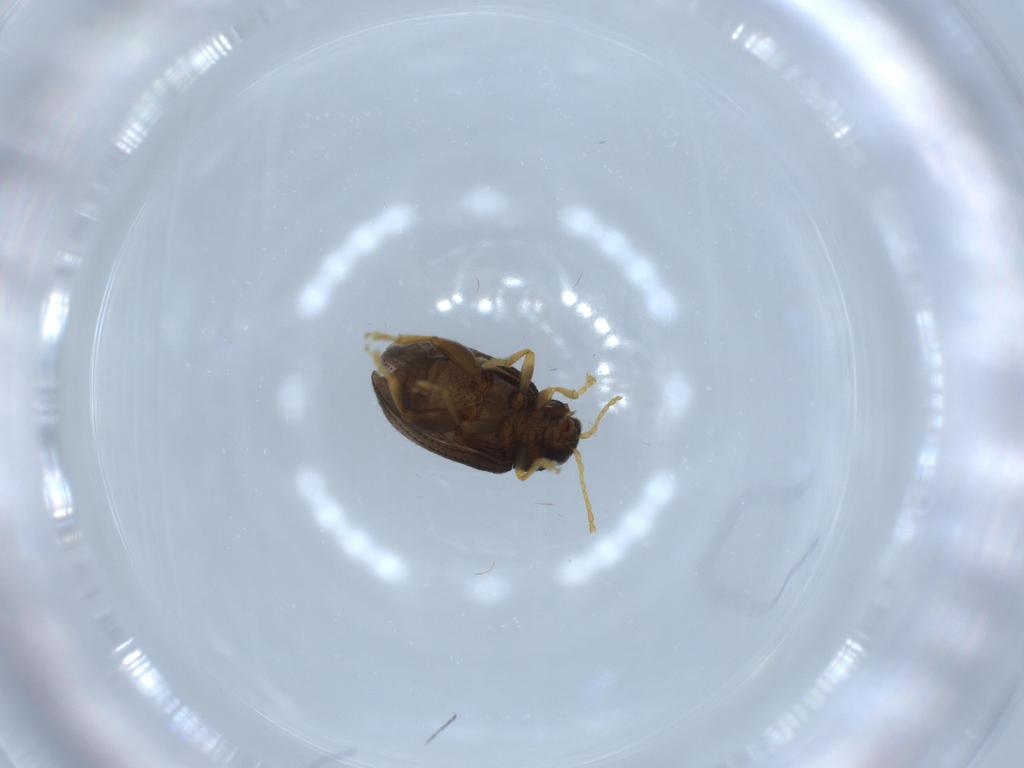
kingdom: Animalia
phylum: Arthropoda
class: Insecta
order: Coleoptera
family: Chrysomelidae
